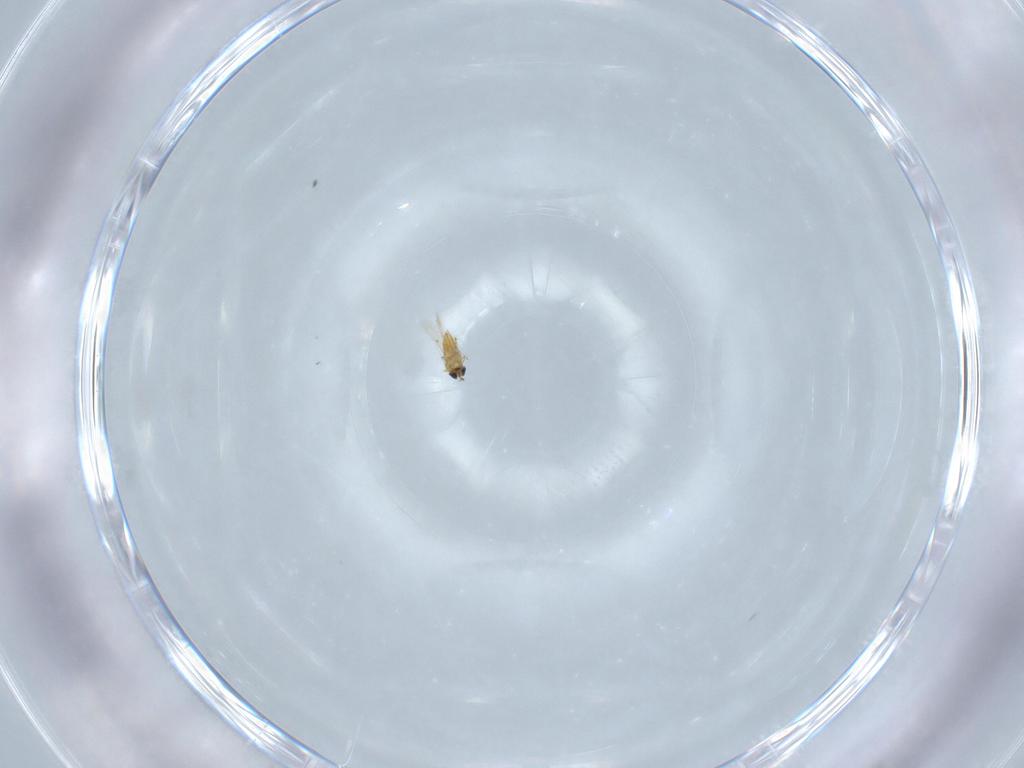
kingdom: Animalia
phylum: Arthropoda
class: Insecta
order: Hymenoptera
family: Trichogrammatidae
